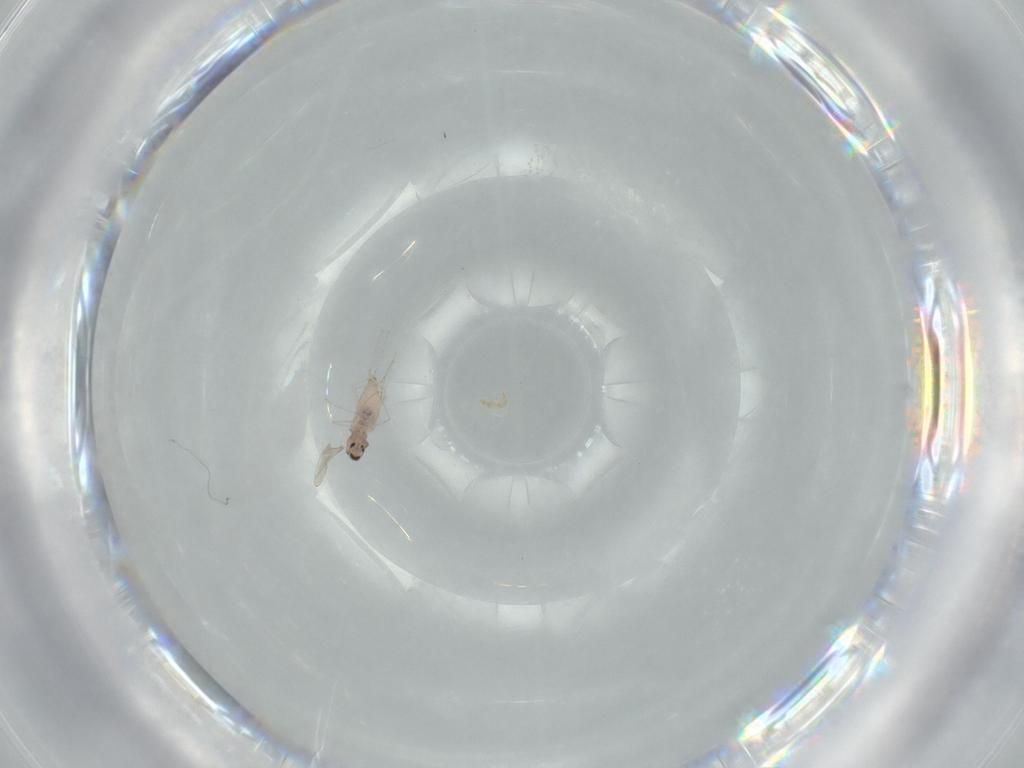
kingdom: Animalia
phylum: Arthropoda
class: Insecta
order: Diptera
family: Cecidomyiidae
